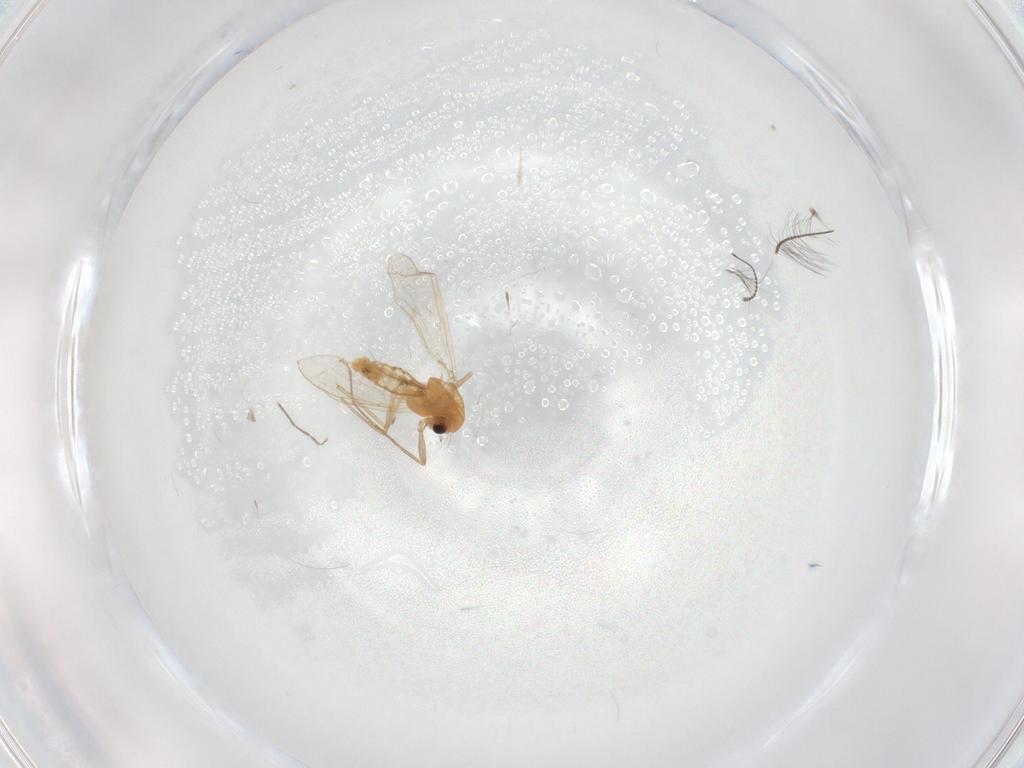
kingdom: Animalia
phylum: Arthropoda
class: Insecta
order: Diptera
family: Chironomidae
